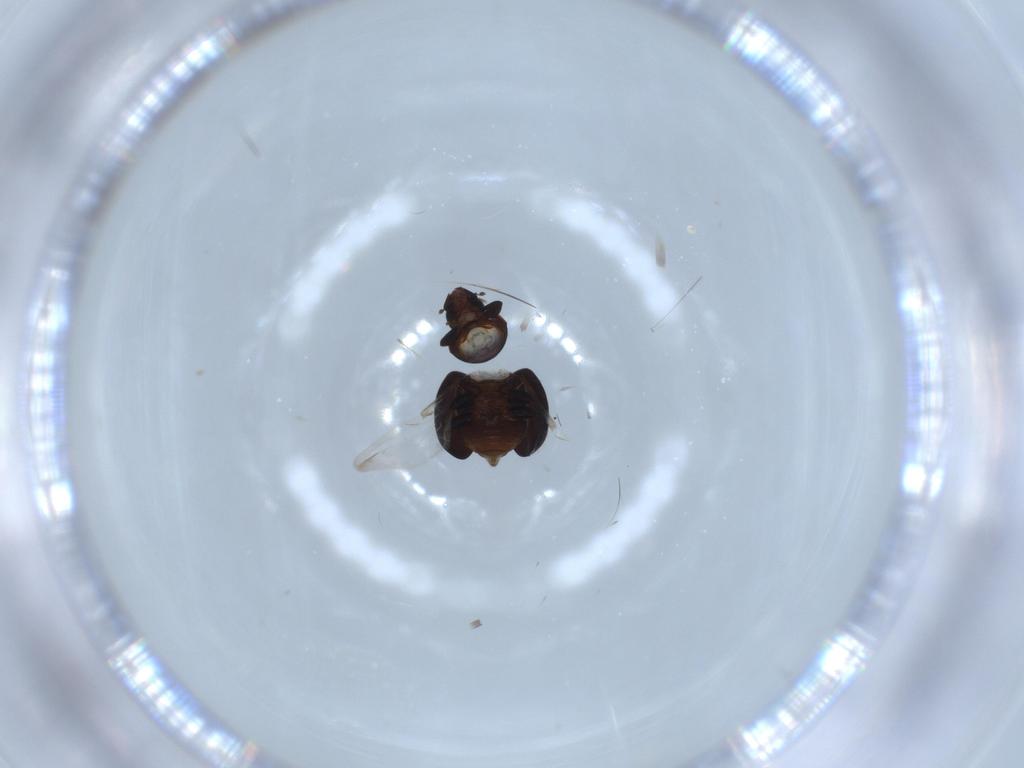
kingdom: Animalia
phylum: Arthropoda
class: Insecta
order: Coleoptera
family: Coccinellidae
